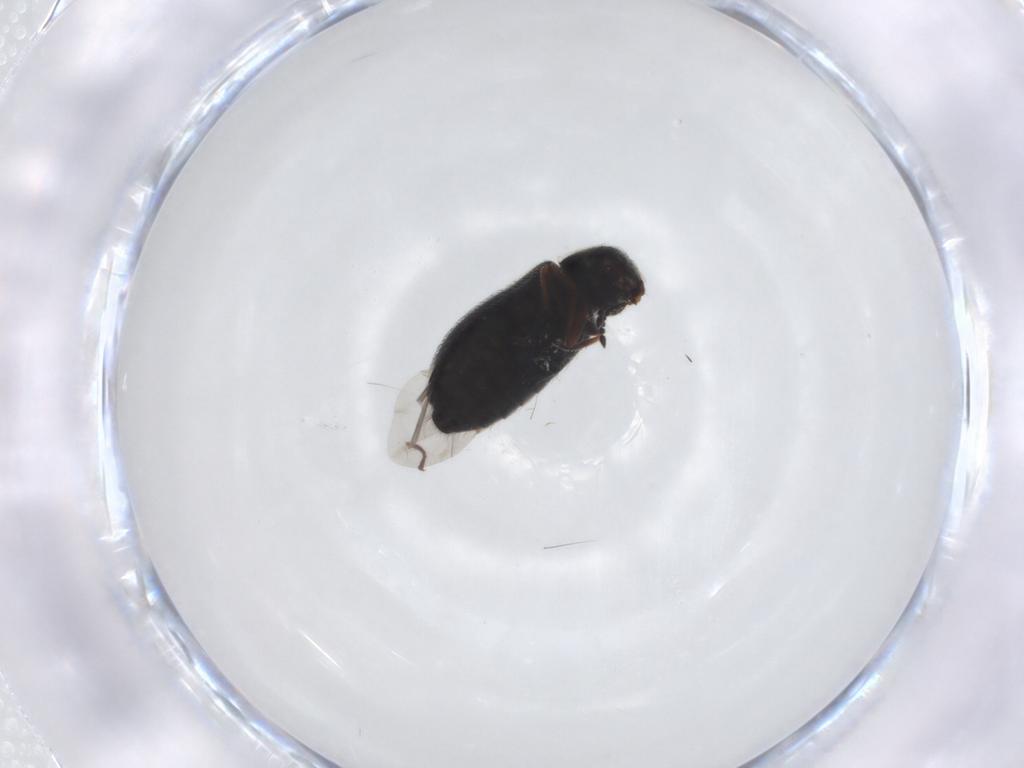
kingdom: Animalia
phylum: Arthropoda
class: Insecta
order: Coleoptera
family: Melyridae
